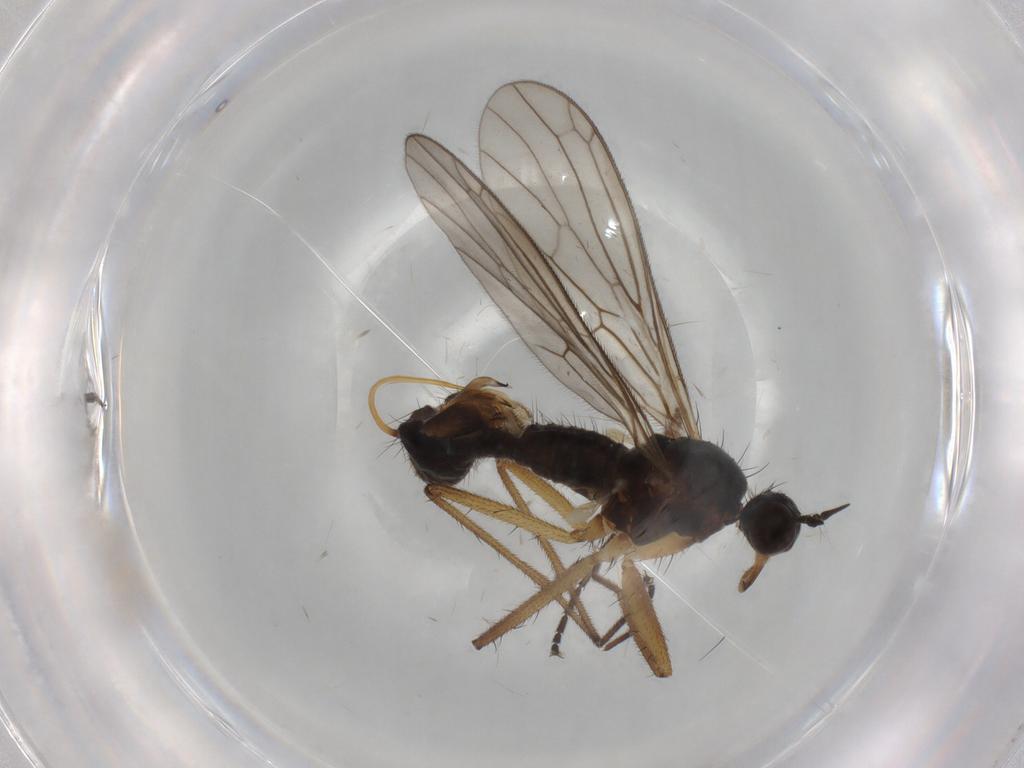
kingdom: Animalia
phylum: Arthropoda
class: Insecta
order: Diptera
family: Empididae
